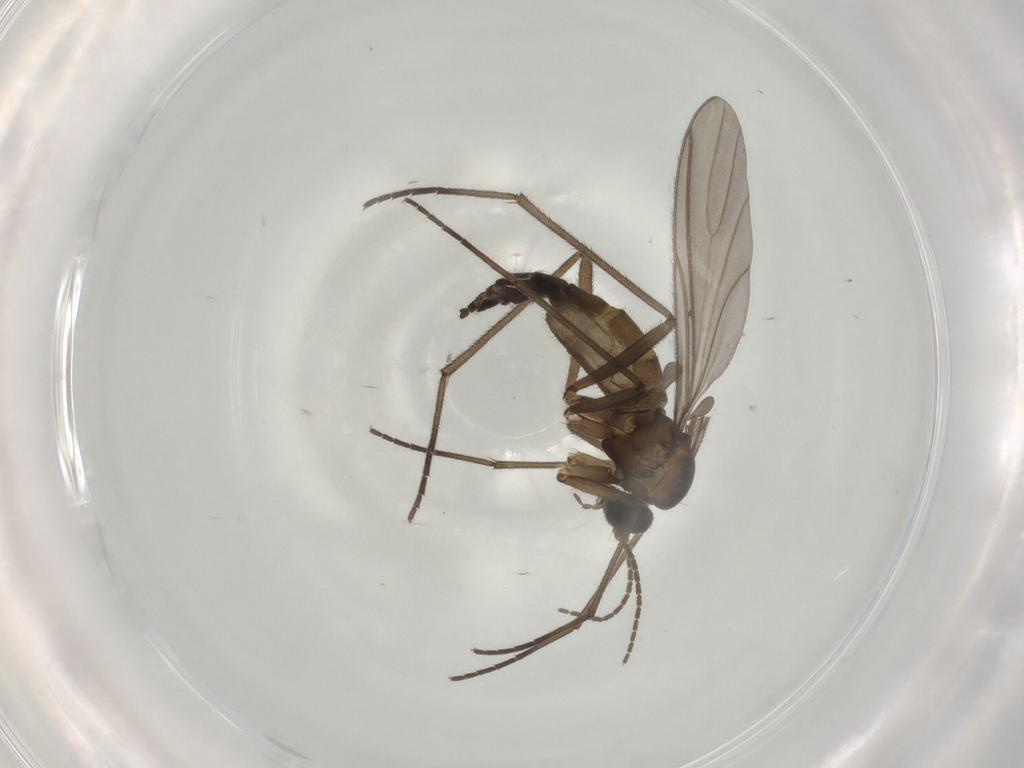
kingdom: Animalia
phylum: Arthropoda
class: Insecta
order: Diptera
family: Sciaridae
